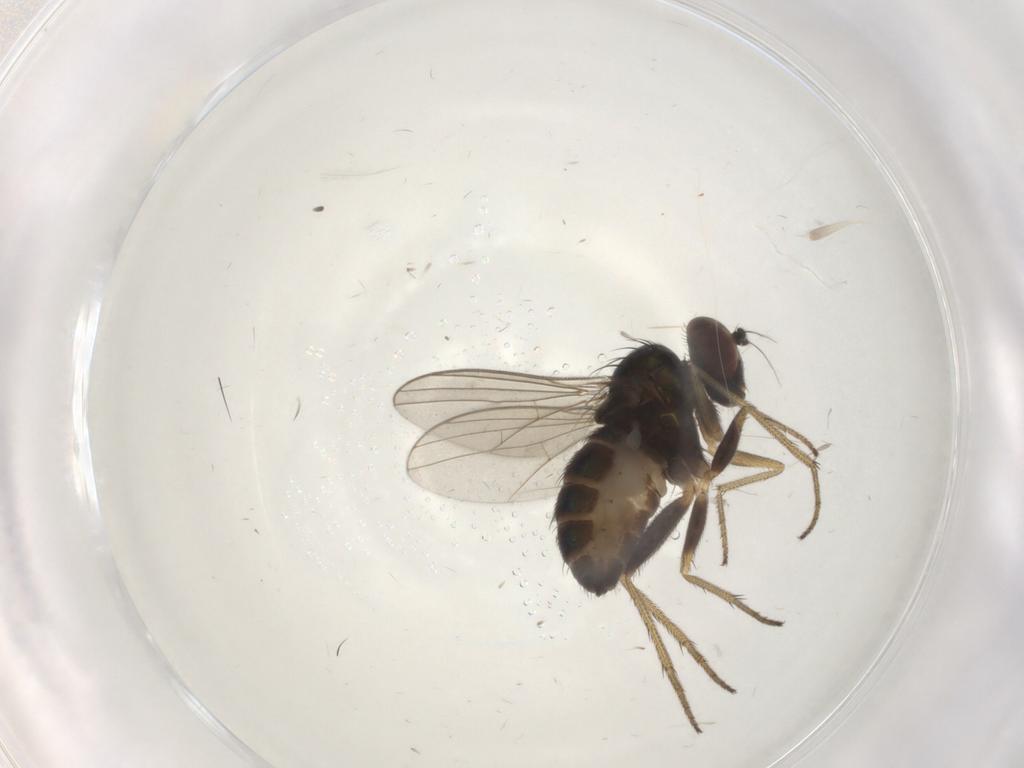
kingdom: Animalia
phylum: Arthropoda
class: Insecta
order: Diptera
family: Dolichopodidae
